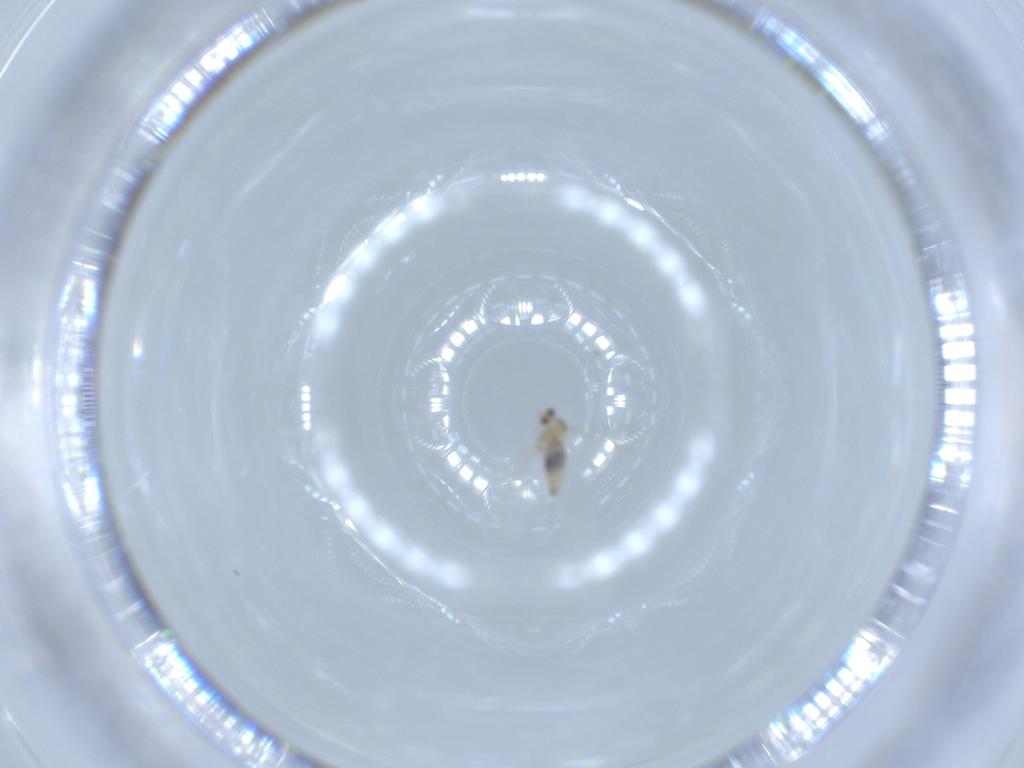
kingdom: Animalia
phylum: Arthropoda
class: Insecta
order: Diptera
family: Cecidomyiidae
